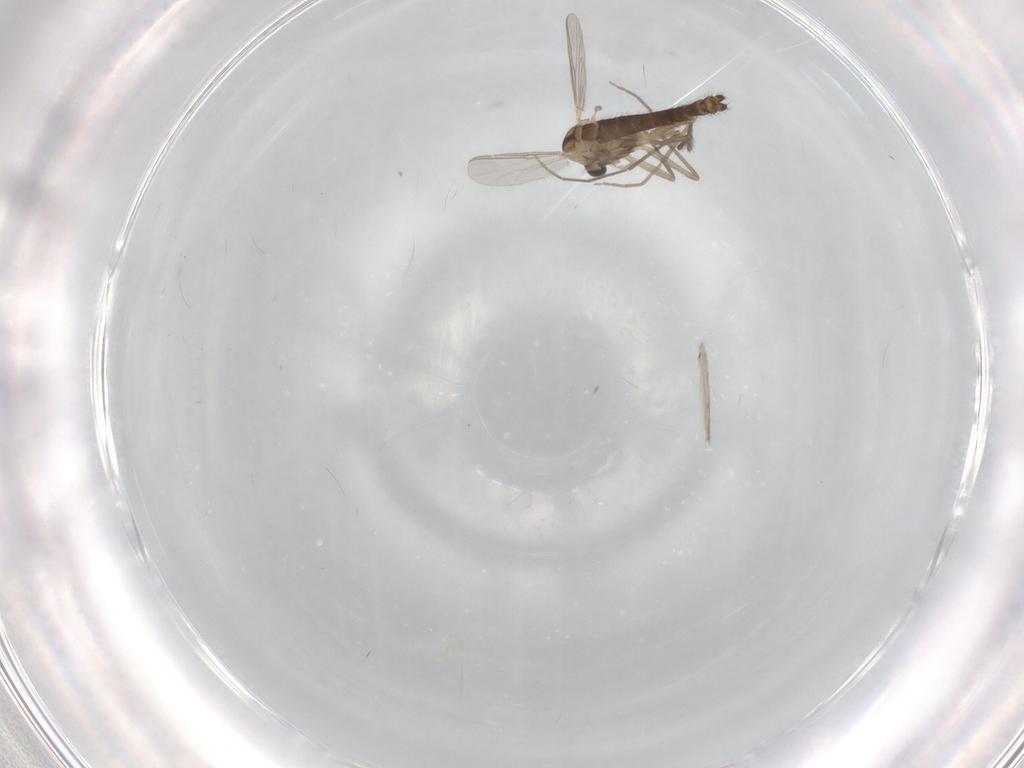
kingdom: Animalia
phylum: Arthropoda
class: Insecta
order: Diptera
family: Chironomidae
